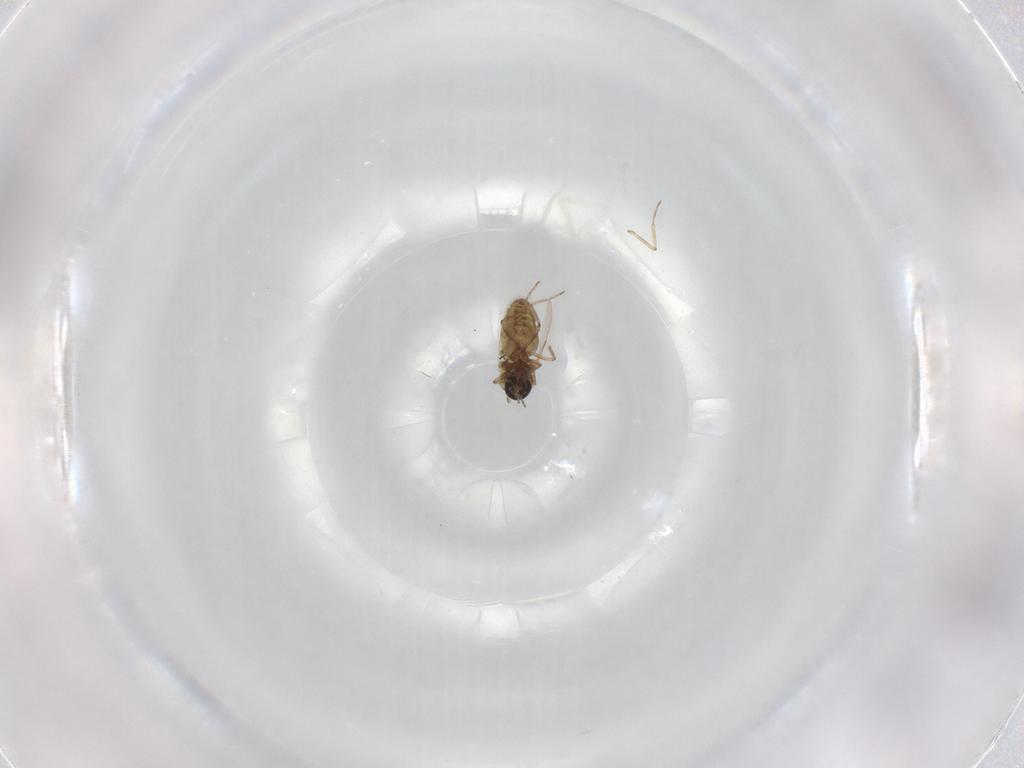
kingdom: Animalia
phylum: Arthropoda
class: Insecta
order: Diptera
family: Ceratopogonidae
